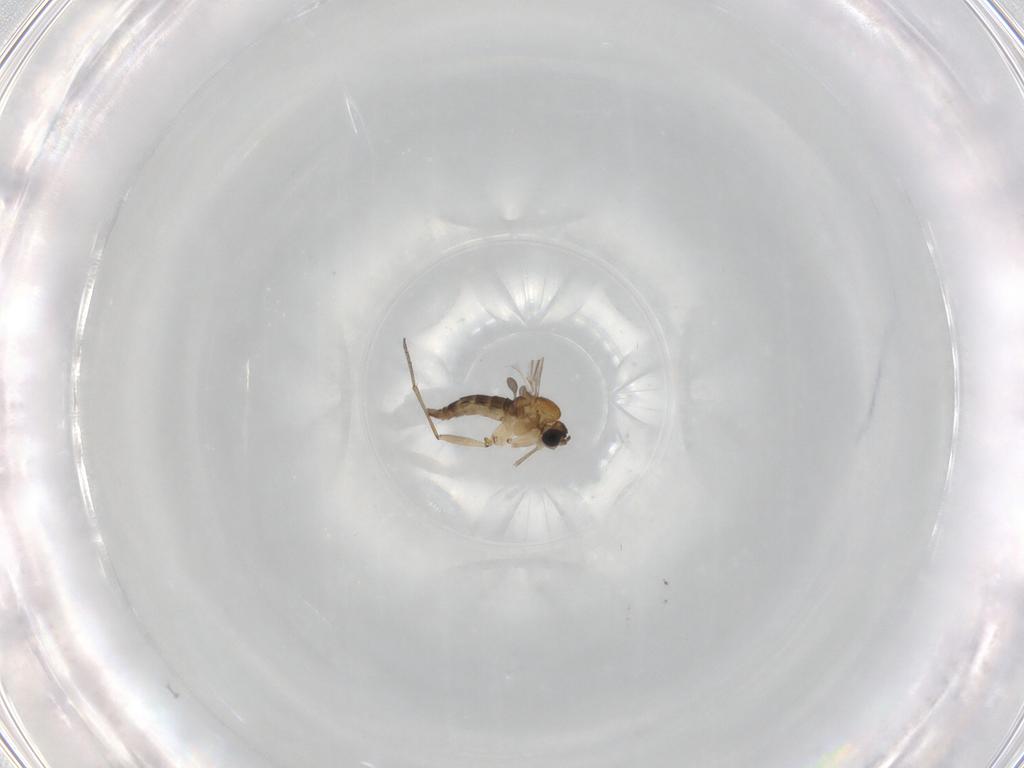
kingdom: Animalia
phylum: Arthropoda
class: Insecta
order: Diptera
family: Sciaridae
